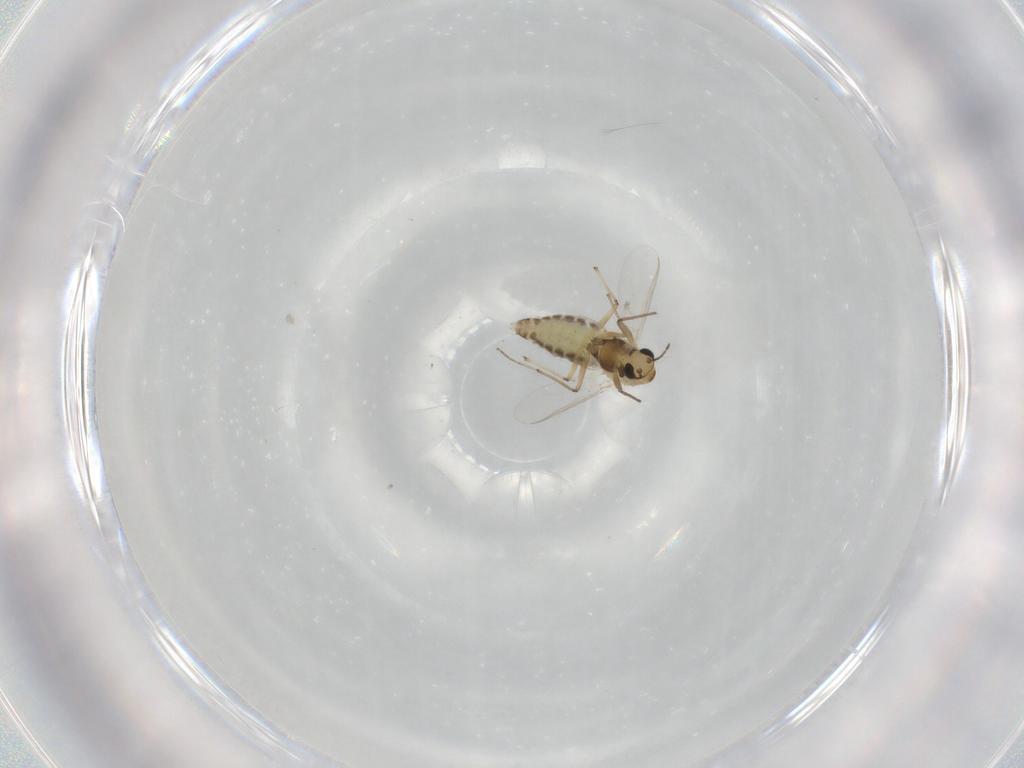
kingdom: Animalia
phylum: Arthropoda
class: Insecta
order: Diptera
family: Chironomidae
